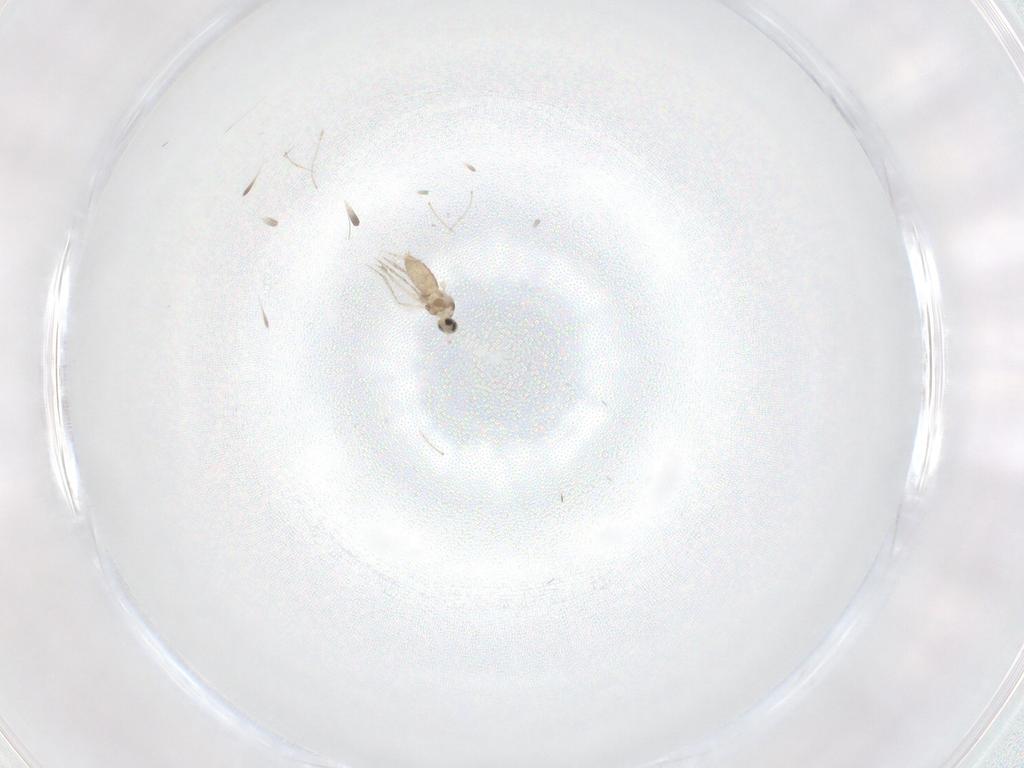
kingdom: Animalia
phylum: Arthropoda
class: Insecta
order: Diptera
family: Cecidomyiidae
